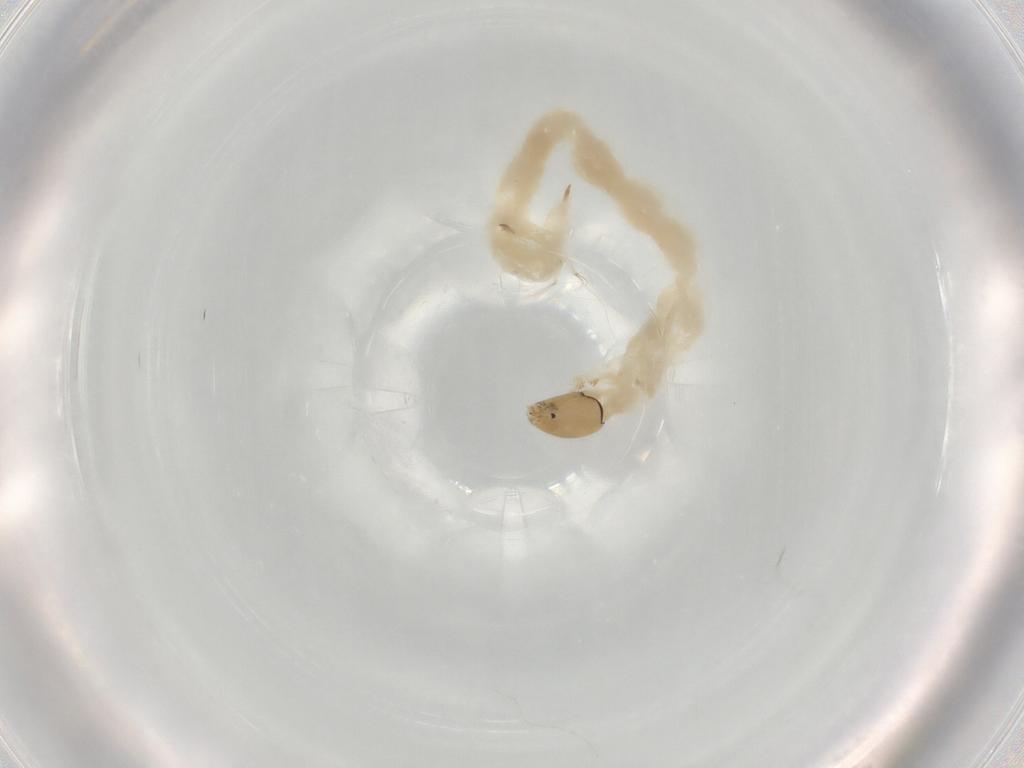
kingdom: Animalia
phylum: Arthropoda
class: Insecta
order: Diptera
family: Chironomidae
